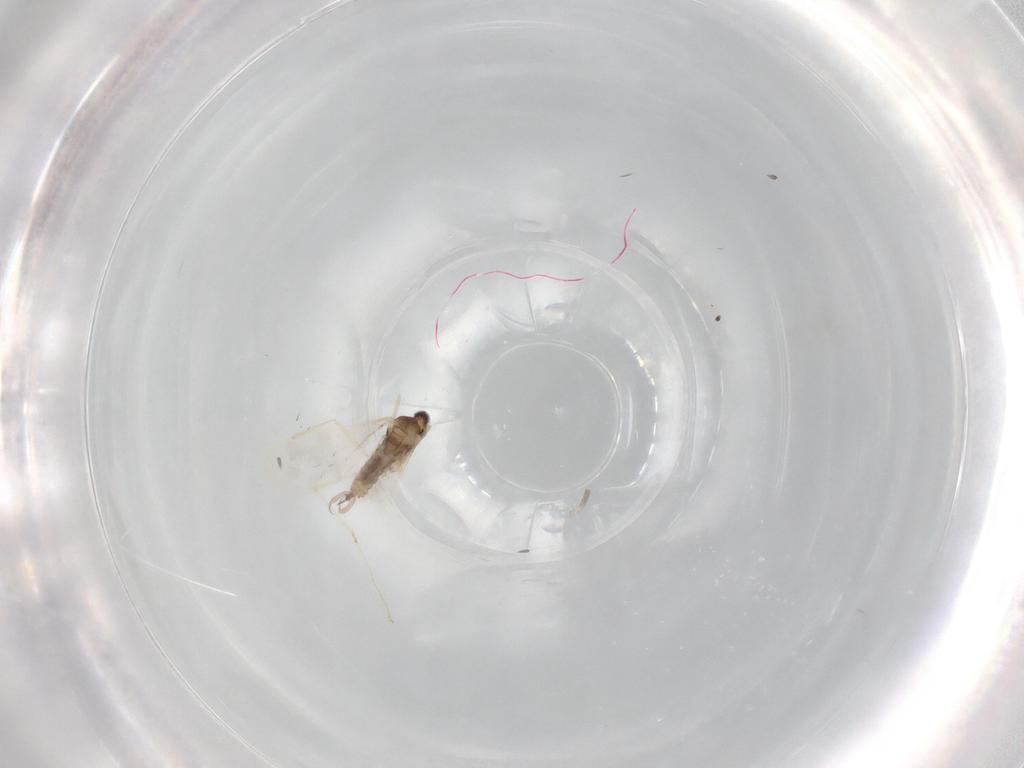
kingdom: Animalia
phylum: Arthropoda
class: Insecta
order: Diptera
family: Cecidomyiidae
